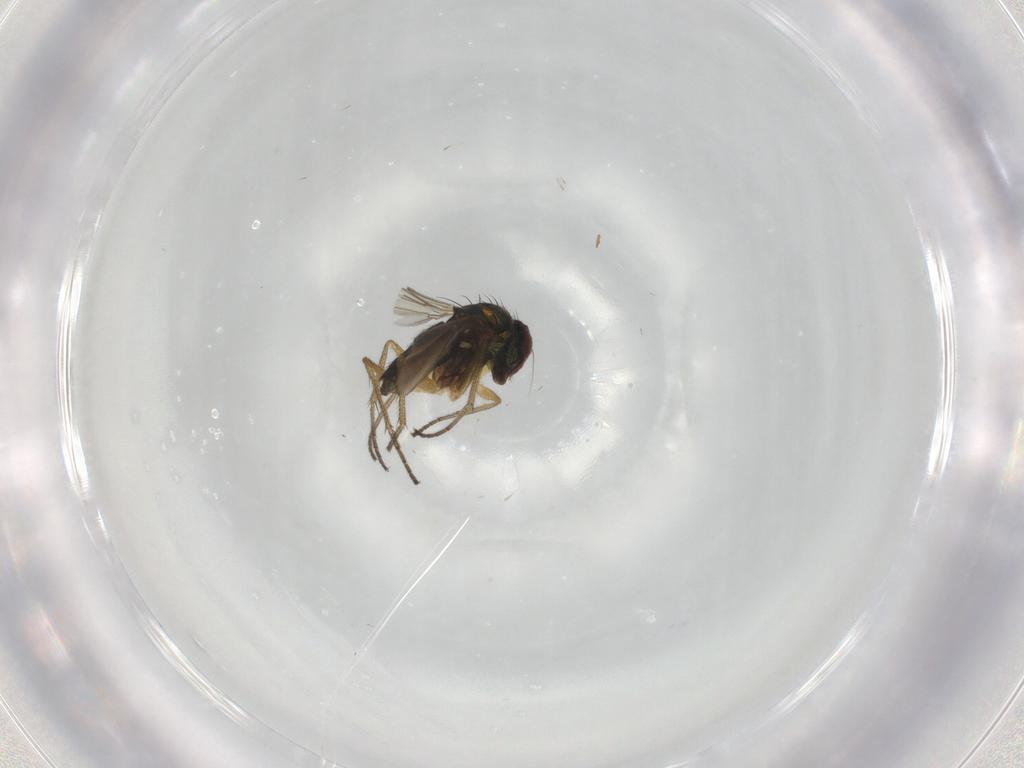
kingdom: Animalia
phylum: Arthropoda
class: Insecta
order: Diptera
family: Dolichopodidae
